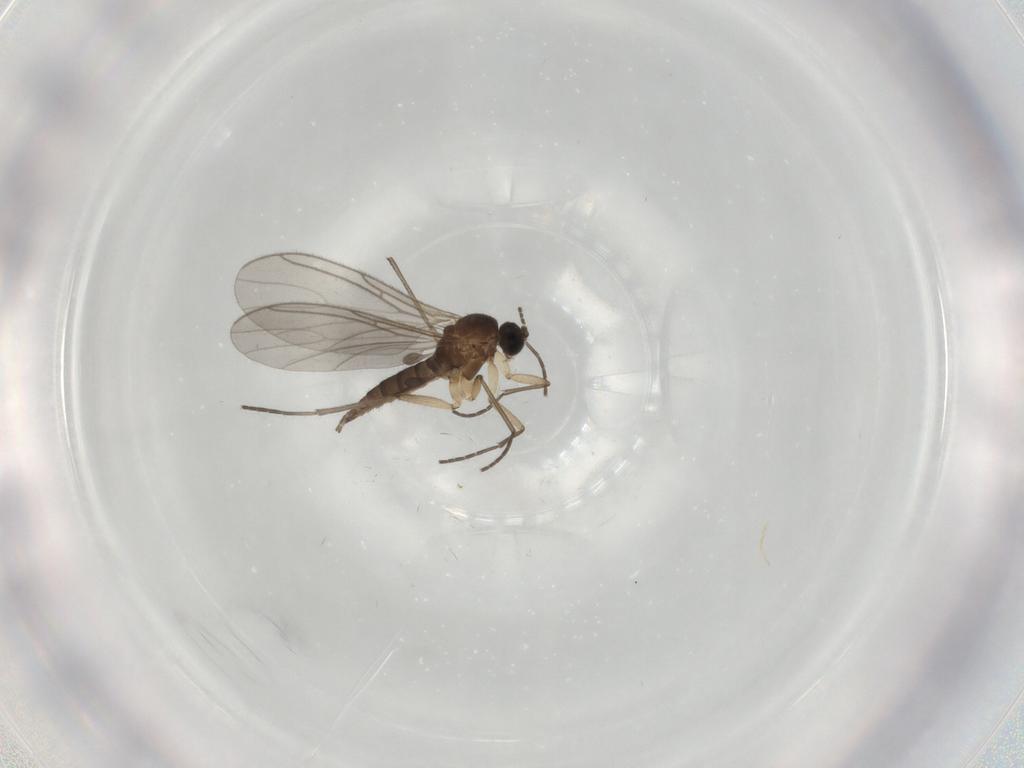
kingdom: Animalia
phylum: Arthropoda
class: Insecta
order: Diptera
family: Sciaridae
